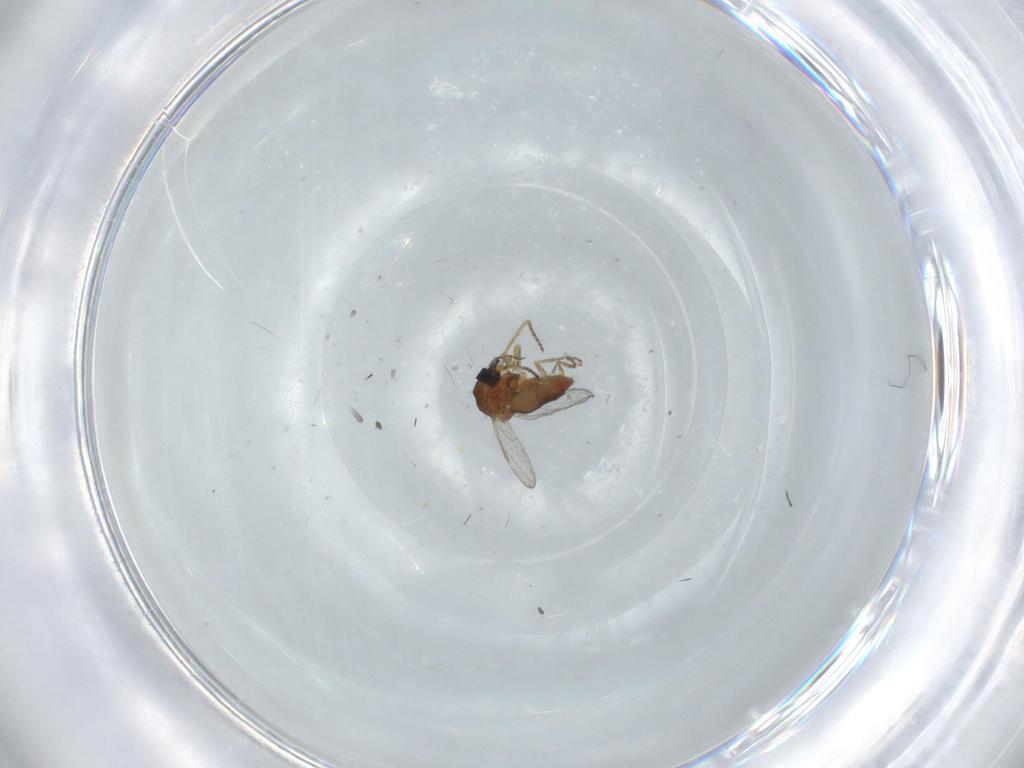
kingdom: Animalia
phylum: Arthropoda
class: Insecta
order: Diptera
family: Ceratopogonidae
